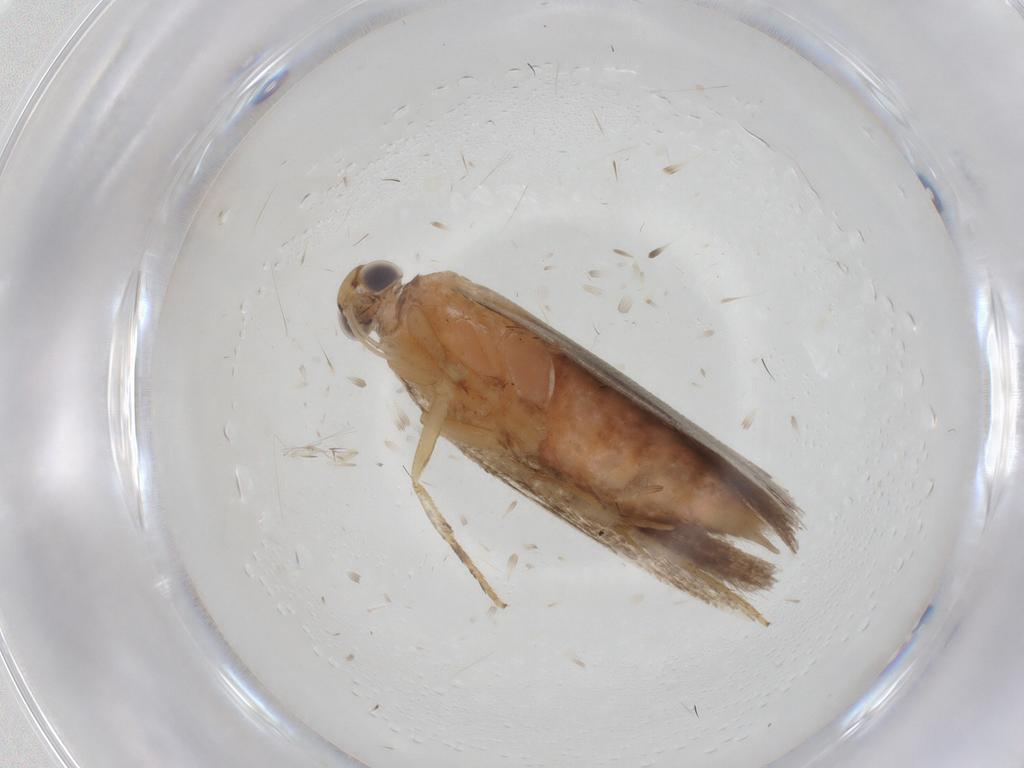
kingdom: Animalia
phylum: Arthropoda
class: Insecta
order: Lepidoptera
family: Gelechiidae
